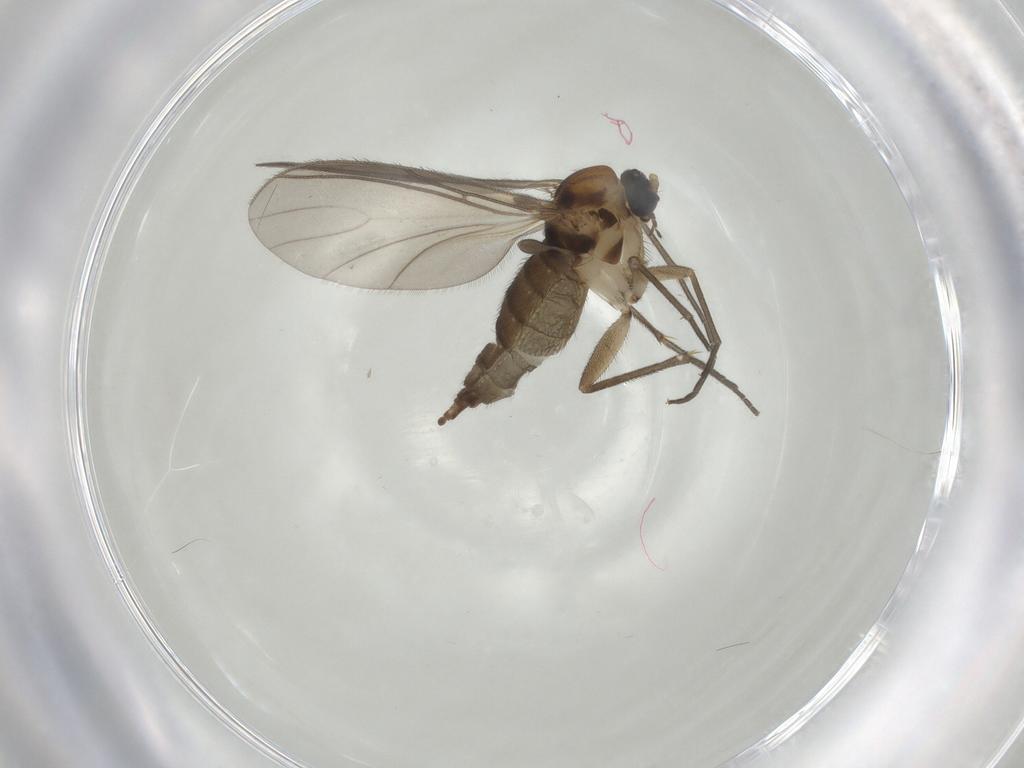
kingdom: Animalia
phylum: Arthropoda
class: Insecta
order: Diptera
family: Sciaridae
